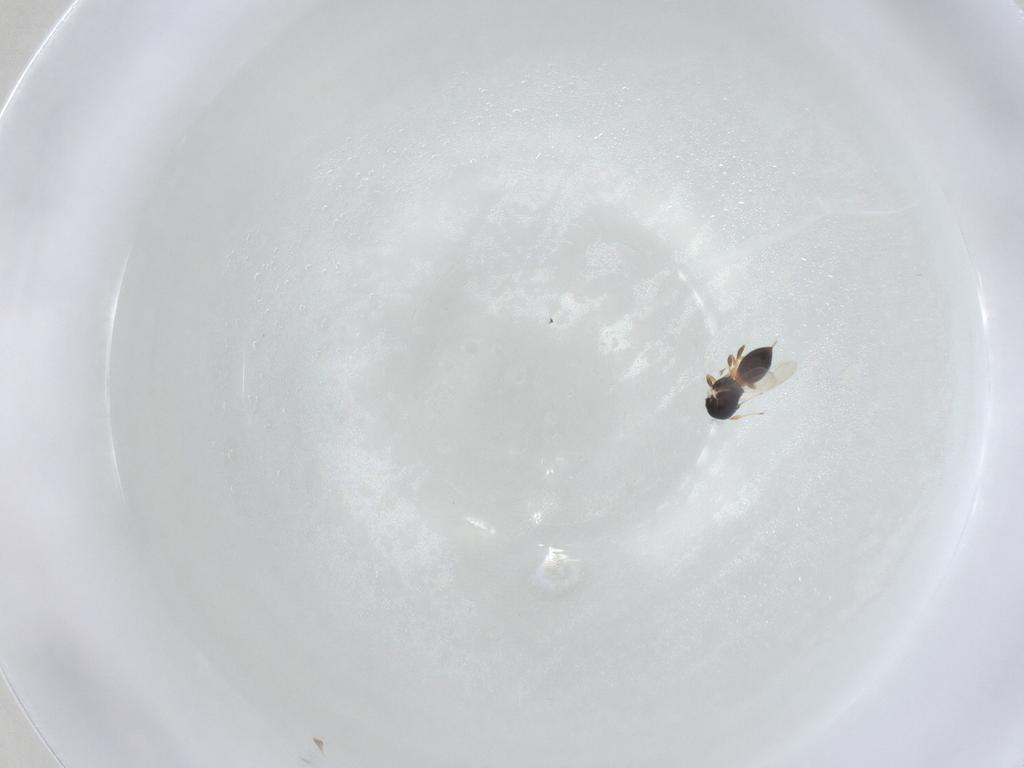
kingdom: Animalia
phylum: Arthropoda
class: Insecta
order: Hymenoptera
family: Platygastridae
